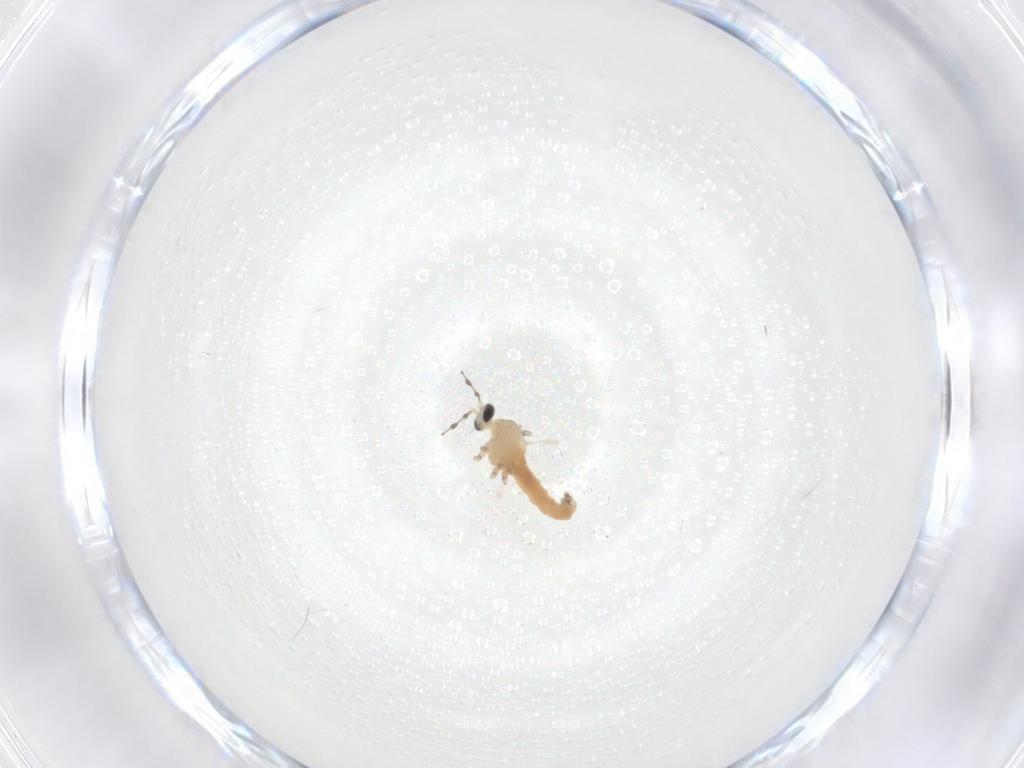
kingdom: Animalia
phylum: Arthropoda
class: Insecta
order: Diptera
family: Cecidomyiidae
